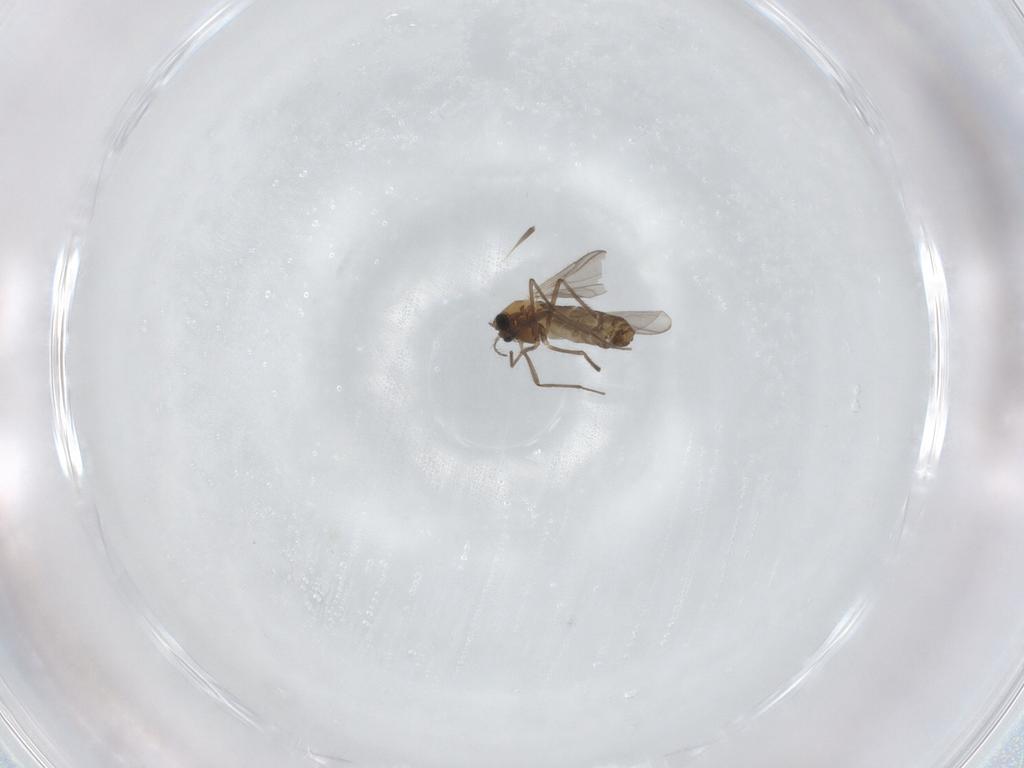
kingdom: Animalia
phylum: Arthropoda
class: Insecta
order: Diptera
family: Chironomidae
